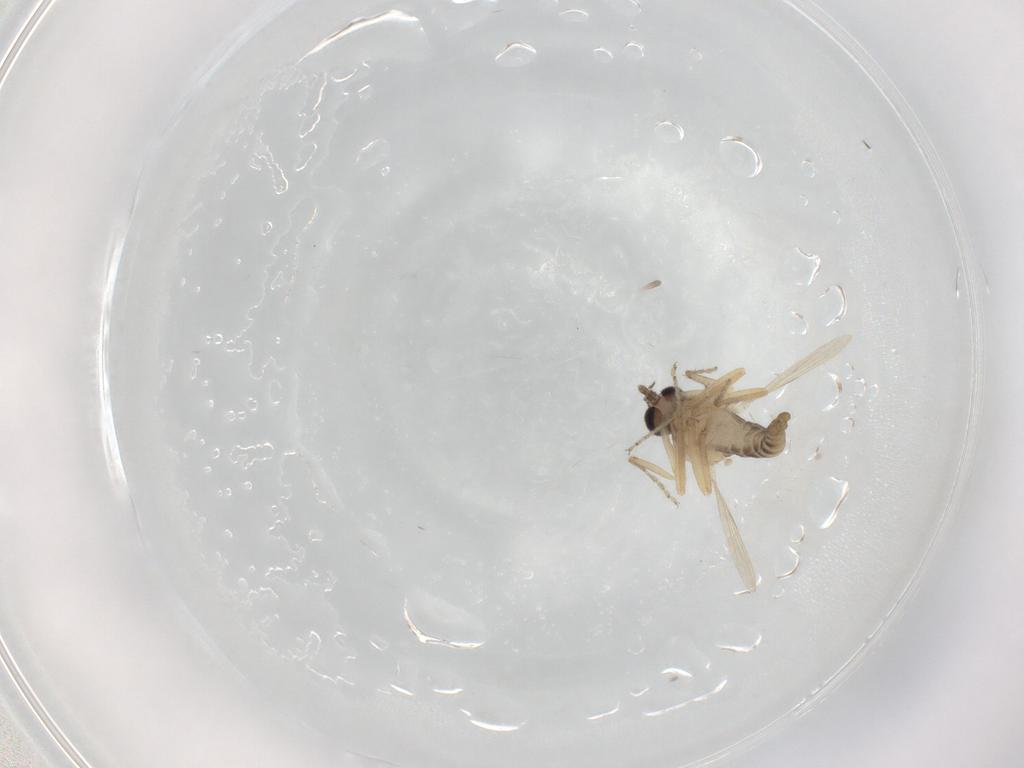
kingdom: Animalia
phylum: Arthropoda
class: Insecta
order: Diptera
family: Ceratopogonidae
